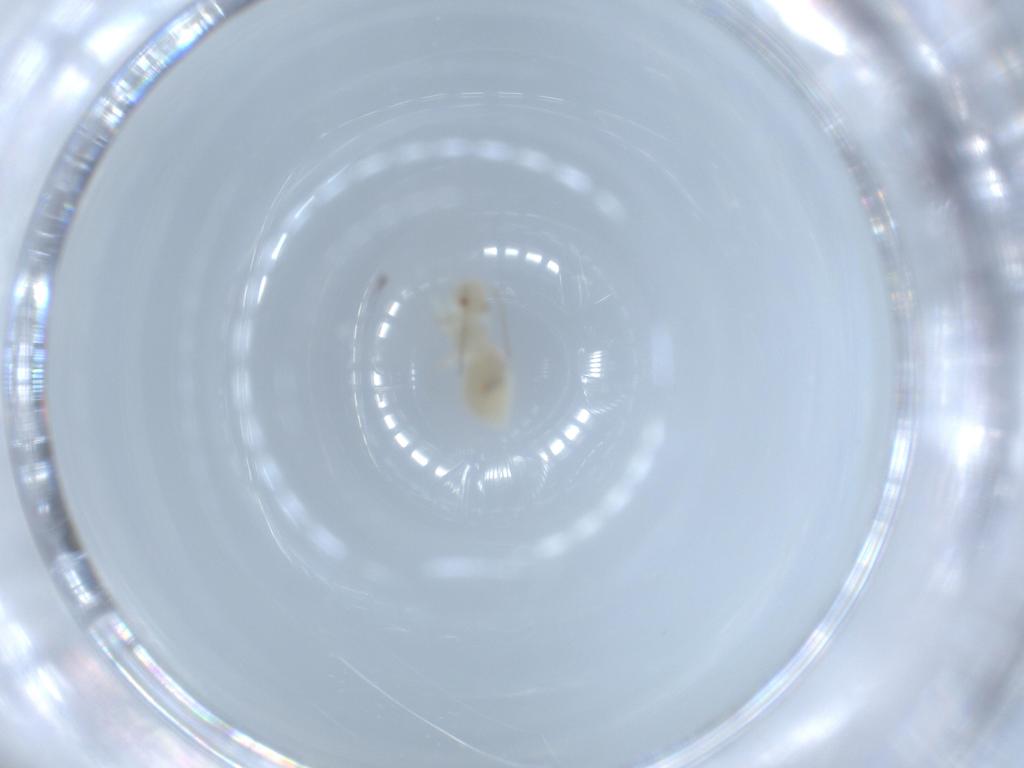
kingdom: Animalia
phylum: Arthropoda
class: Insecta
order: Psocodea
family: Caeciliusidae
